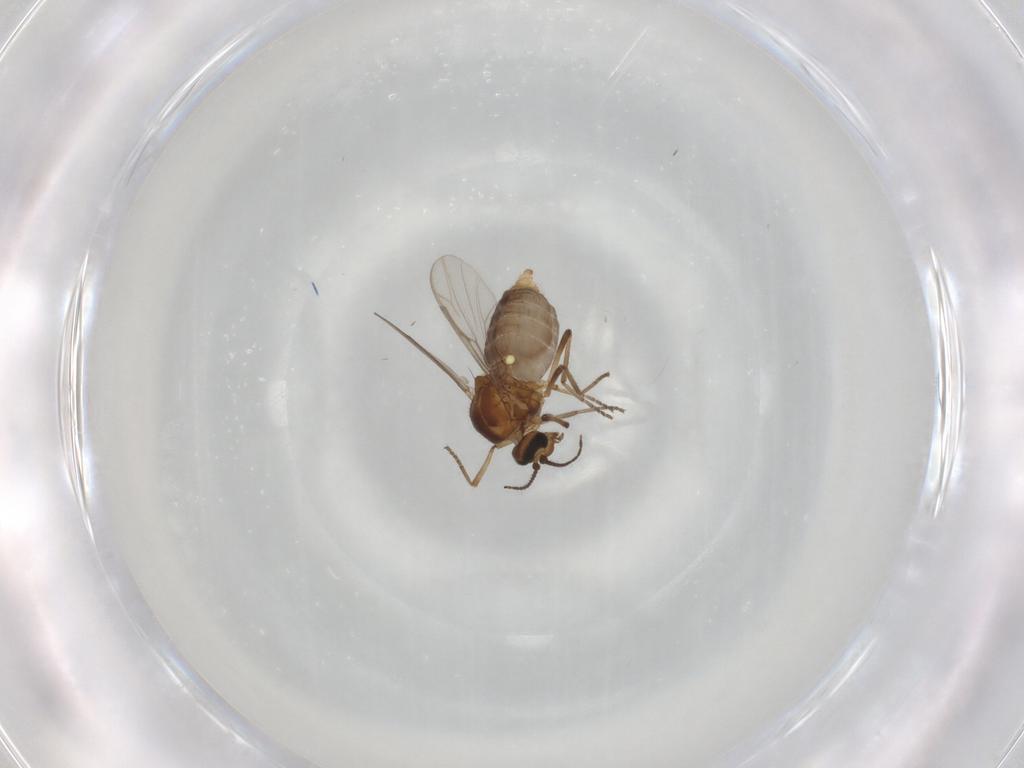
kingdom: Animalia
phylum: Arthropoda
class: Insecta
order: Diptera
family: Ceratopogonidae
